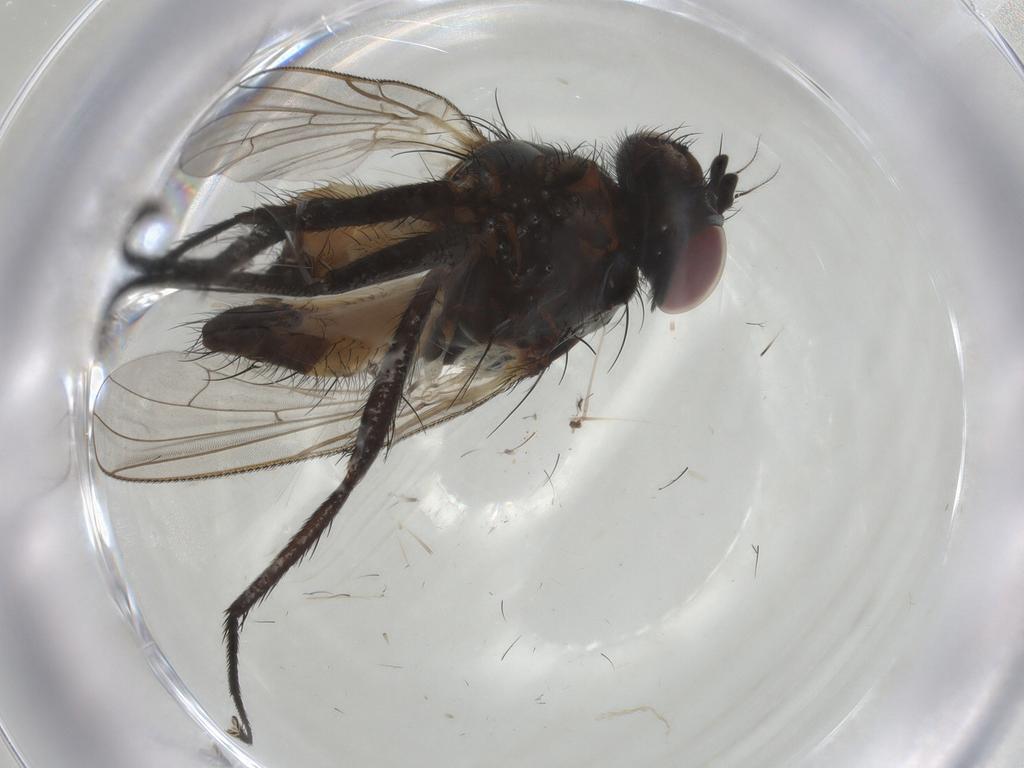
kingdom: Animalia
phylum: Arthropoda
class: Insecta
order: Diptera
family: Anthomyiidae
